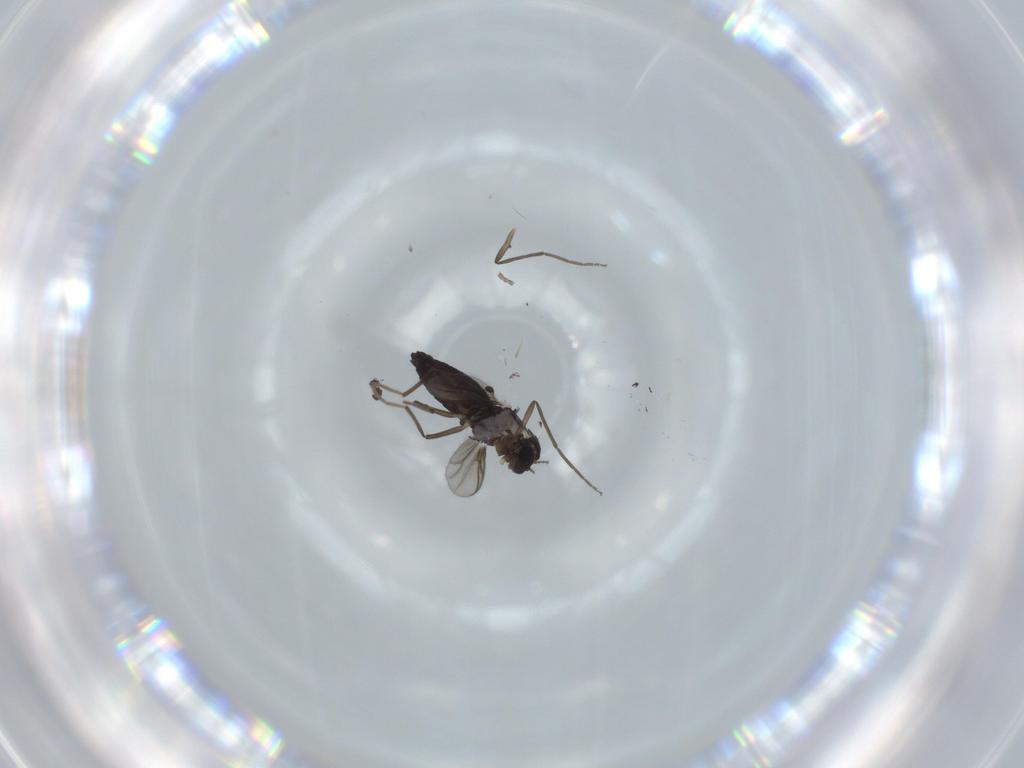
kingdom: Animalia
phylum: Arthropoda
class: Insecta
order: Diptera
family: Chironomidae
